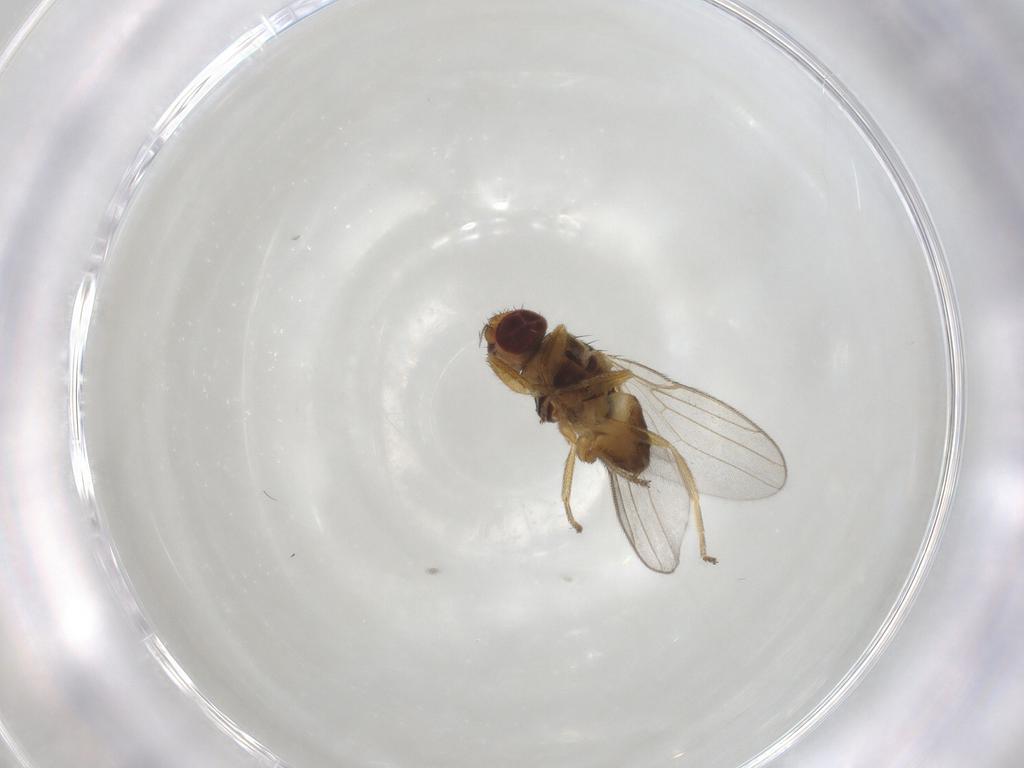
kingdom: Animalia
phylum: Arthropoda
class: Insecta
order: Diptera
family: Chloropidae
